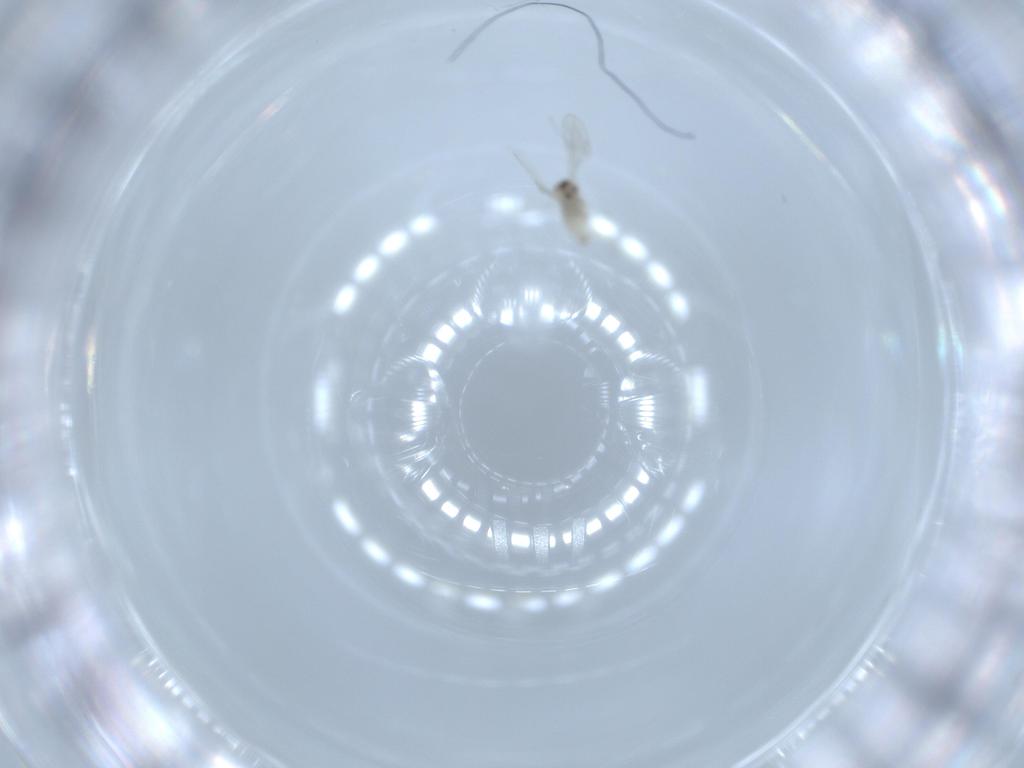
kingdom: Animalia
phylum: Arthropoda
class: Insecta
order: Diptera
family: Cecidomyiidae
